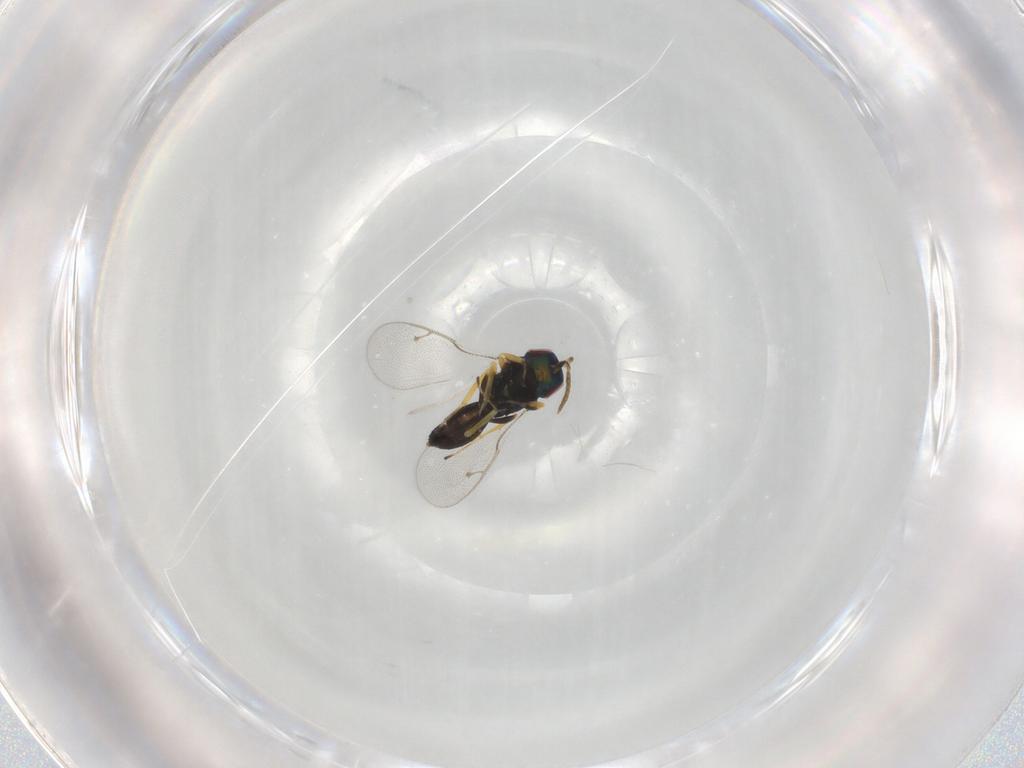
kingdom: Animalia
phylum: Arthropoda
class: Insecta
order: Hymenoptera
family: Pteromalidae
